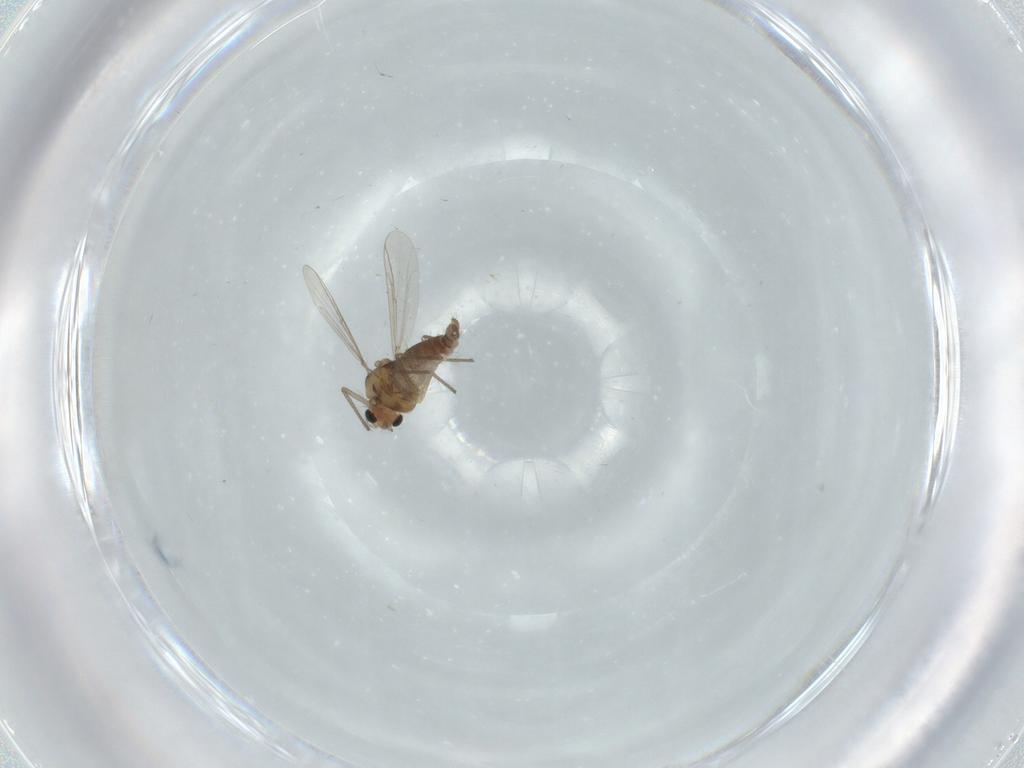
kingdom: Animalia
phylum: Arthropoda
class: Insecta
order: Diptera
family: Chironomidae
